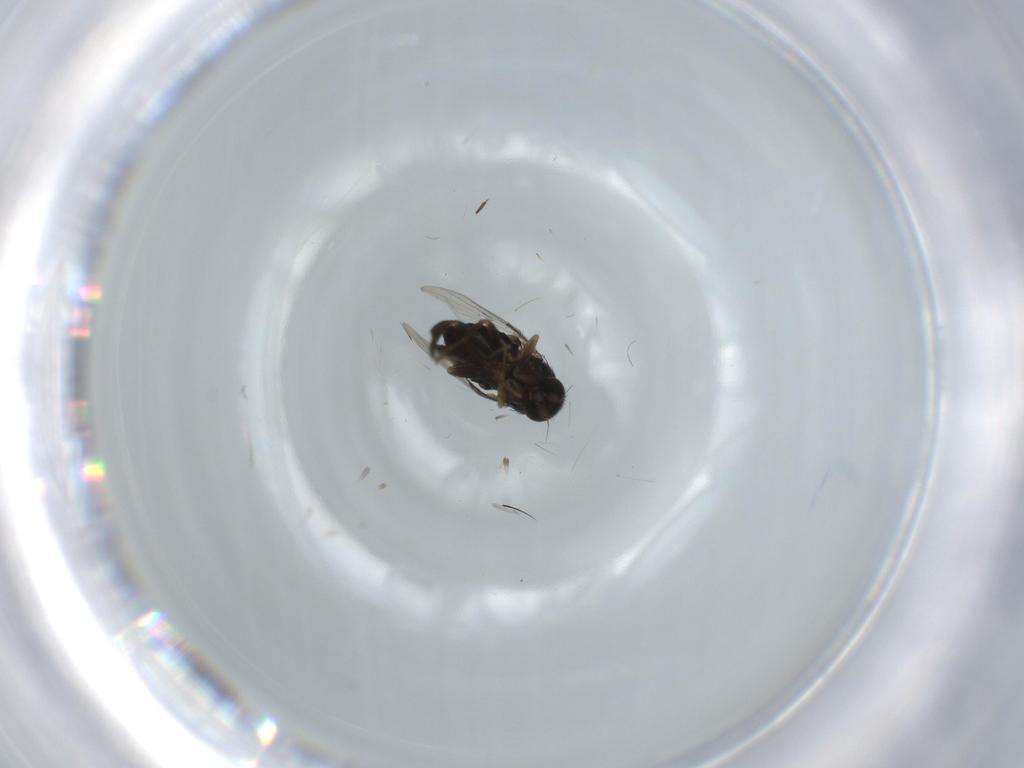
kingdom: Animalia
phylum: Arthropoda
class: Insecta
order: Diptera
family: Phoridae
